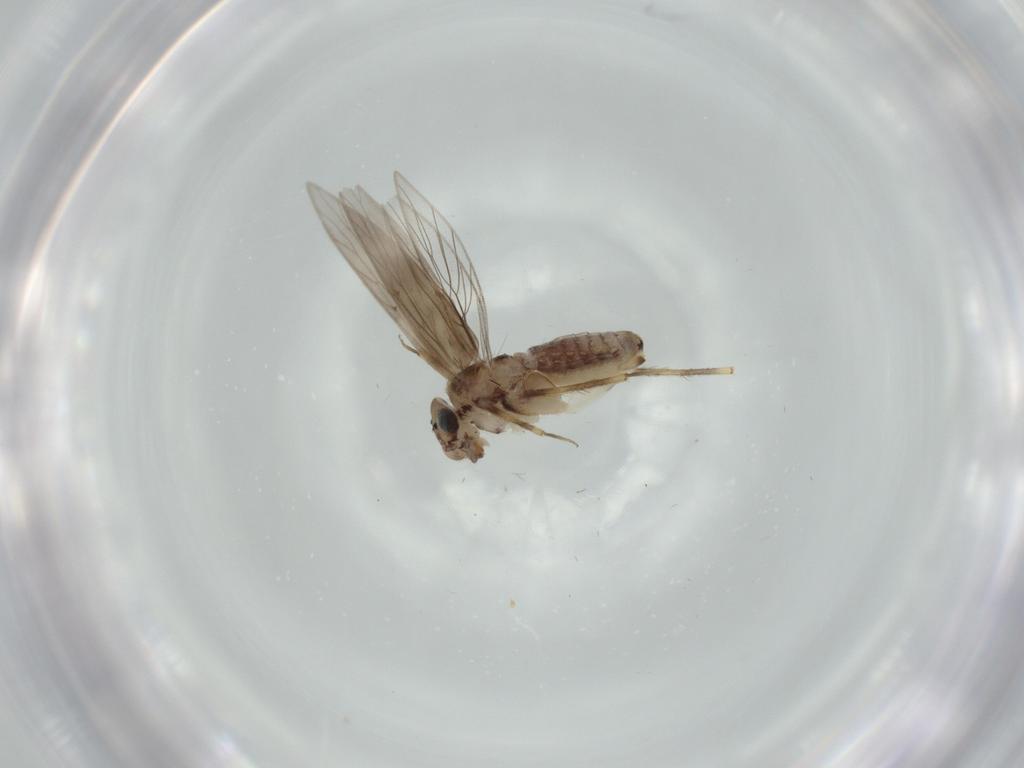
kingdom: Animalia
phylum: Arthropoda
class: Insecta
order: Psocodea
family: Lepidopsocidae
